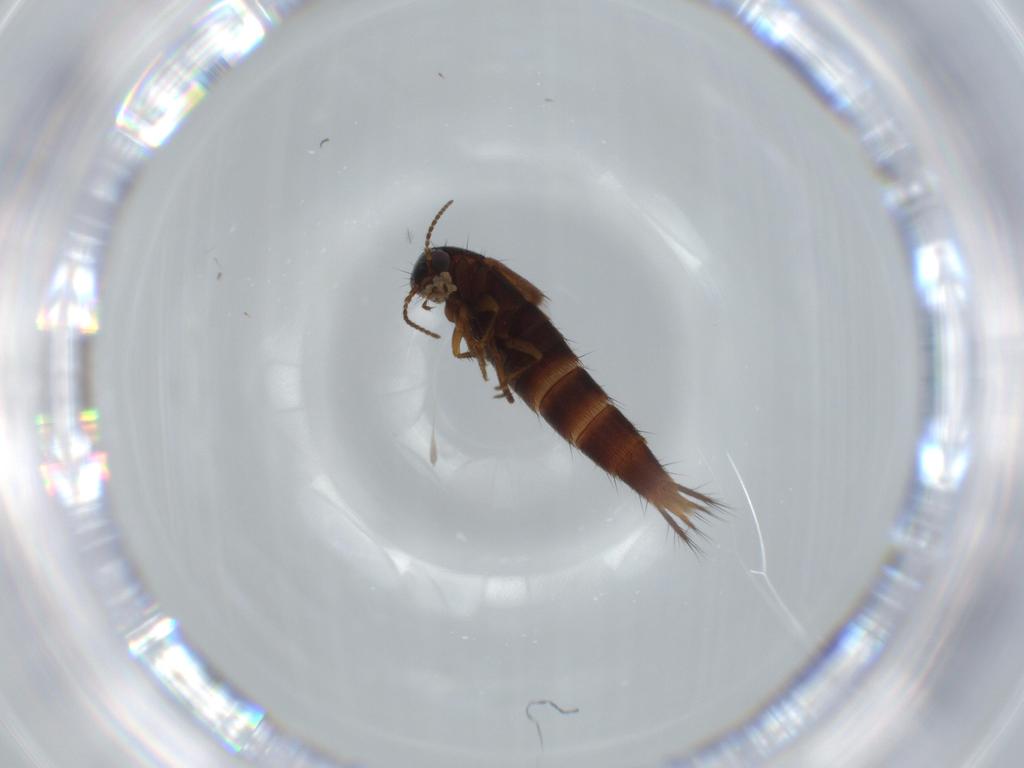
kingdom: Animalia
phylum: Arthropoda
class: Insecta
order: Coleoptera
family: Staphylinidae
